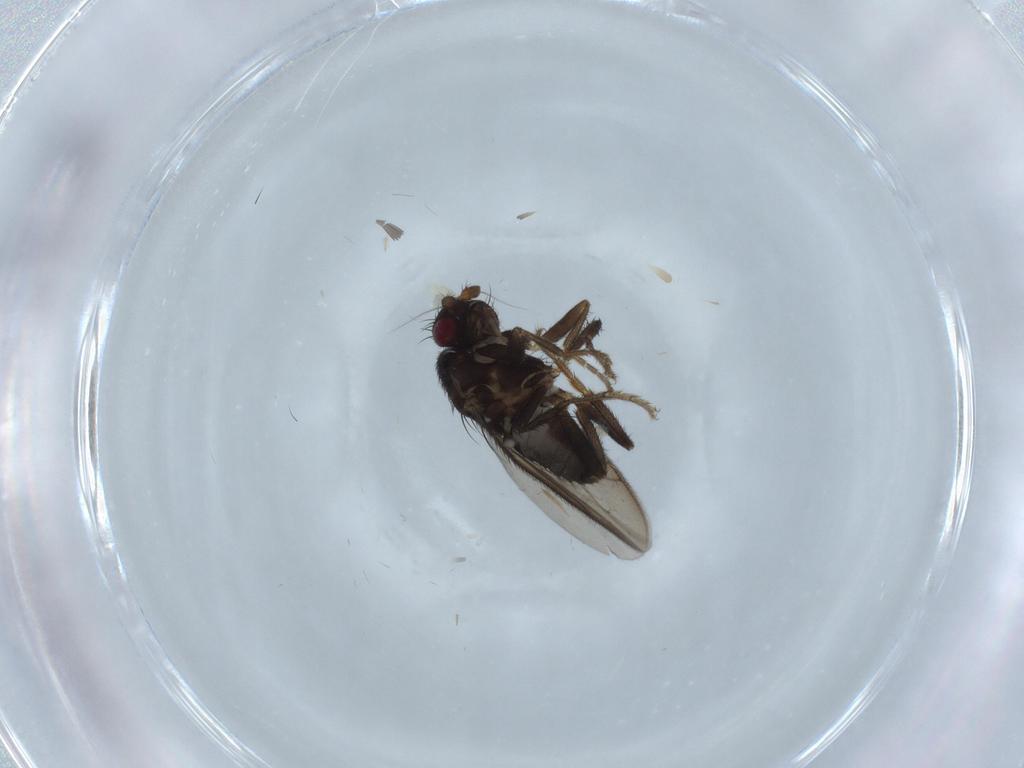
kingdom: Animalia
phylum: Arthropoda
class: Insecta
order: Diptera
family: Sphaeroceridae
